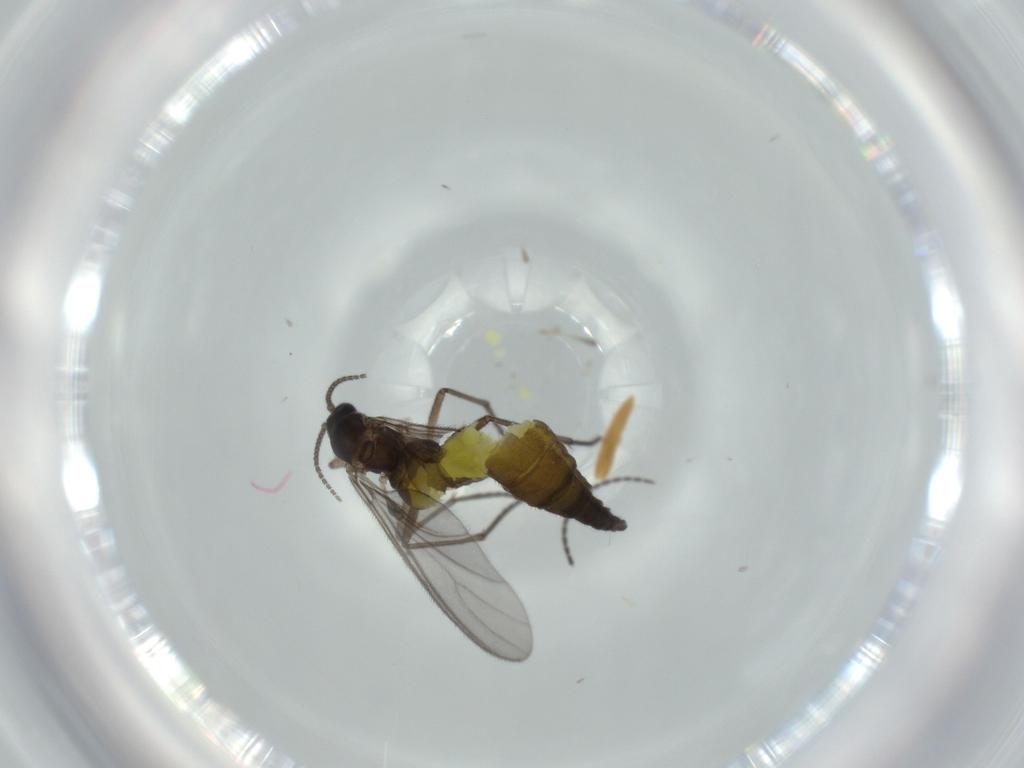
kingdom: Animalia
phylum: Arthropoda
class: Insecta
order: Diptera
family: Sciaridae
